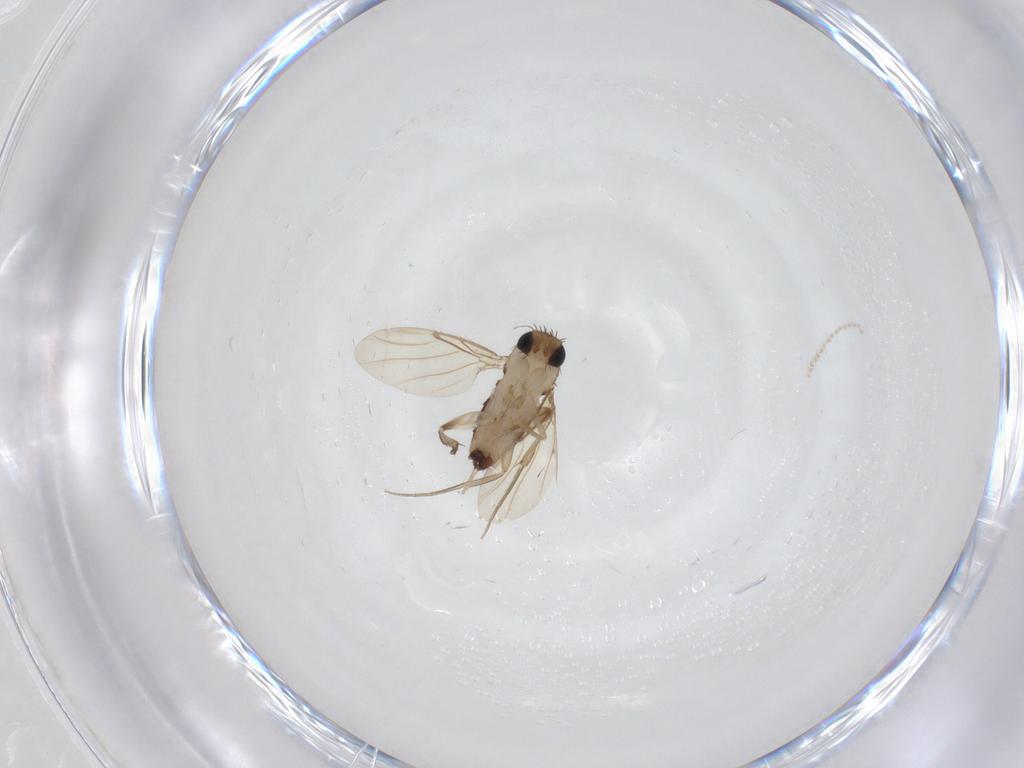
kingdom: Animalia
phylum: Arthropoda
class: Insecta
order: Diptera
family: Phoridae
